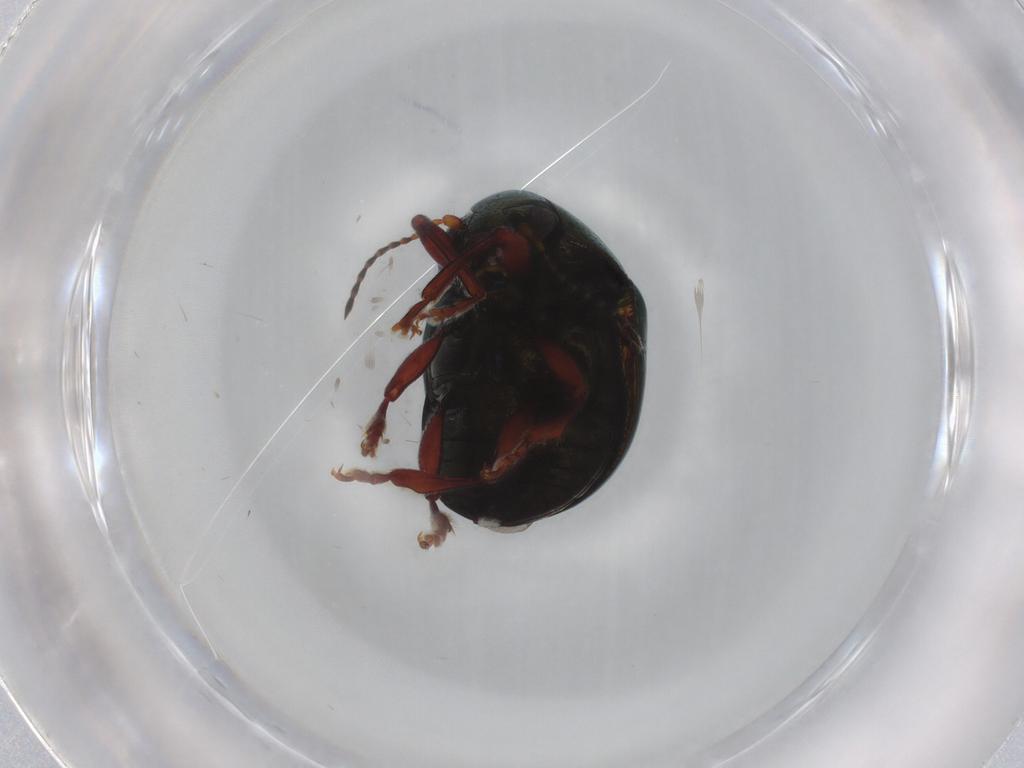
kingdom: Animalia
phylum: Arthropoda
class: Insecta
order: Coleoptera
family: Chrysomelidae
